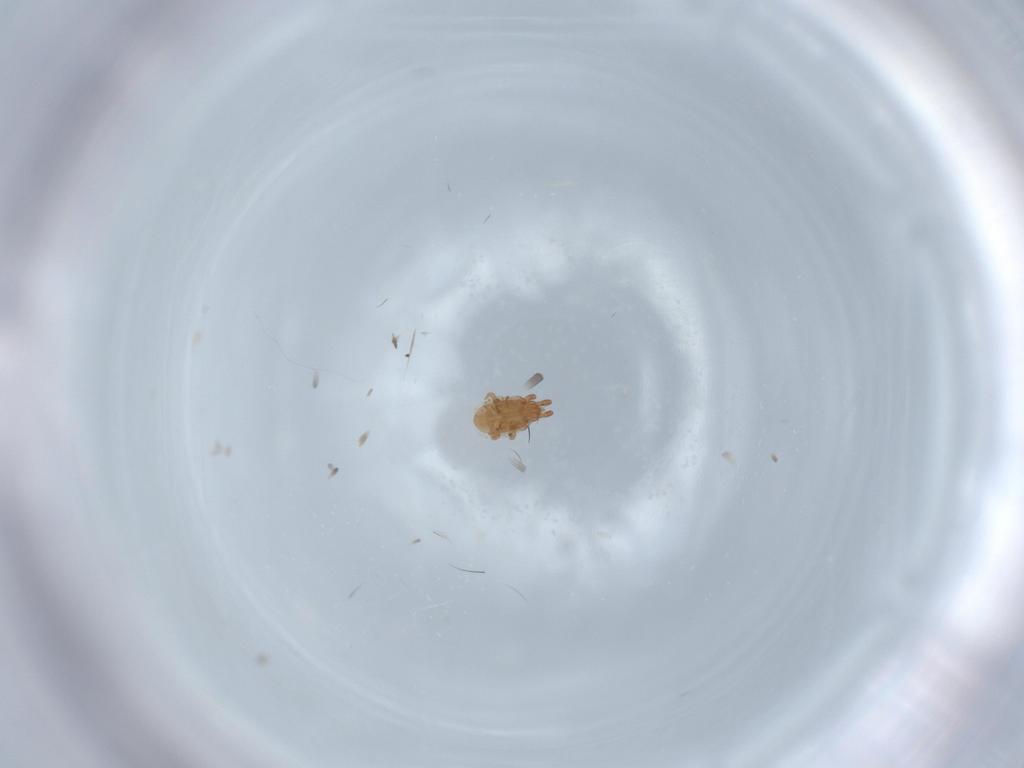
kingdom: Animalia
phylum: Arthropoda
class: Arachnida
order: Mesostigmata
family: Dinychidae
